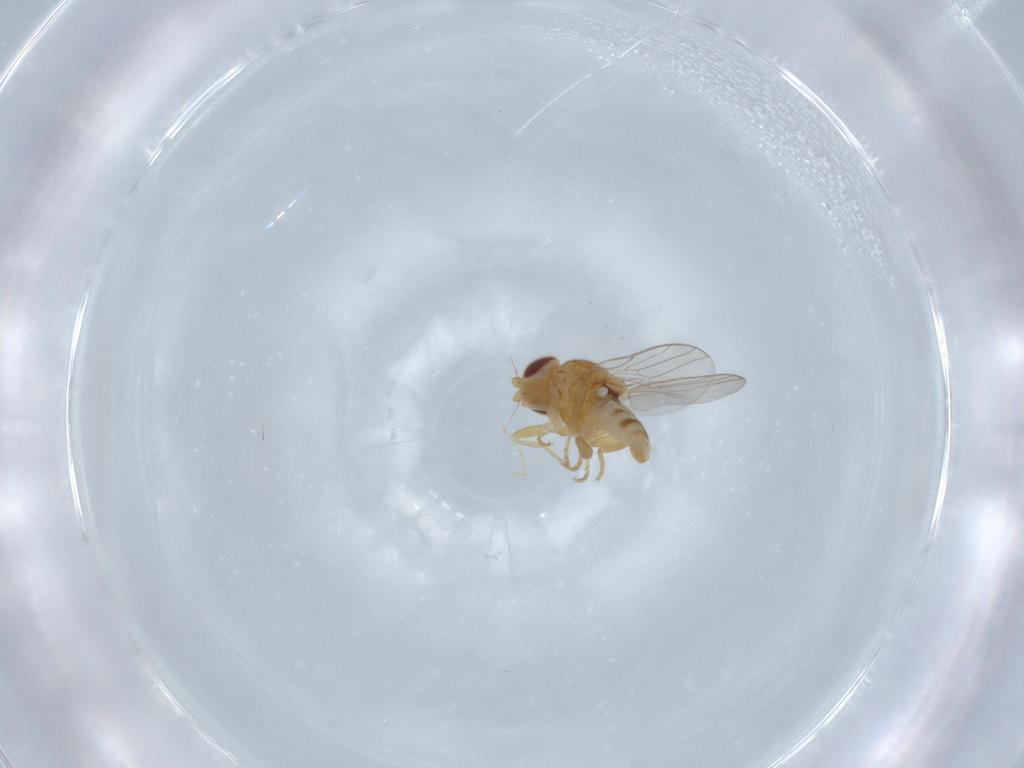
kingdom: Animalia
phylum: Arthropoda
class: Insecta
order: Diptera
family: Chloropidae
